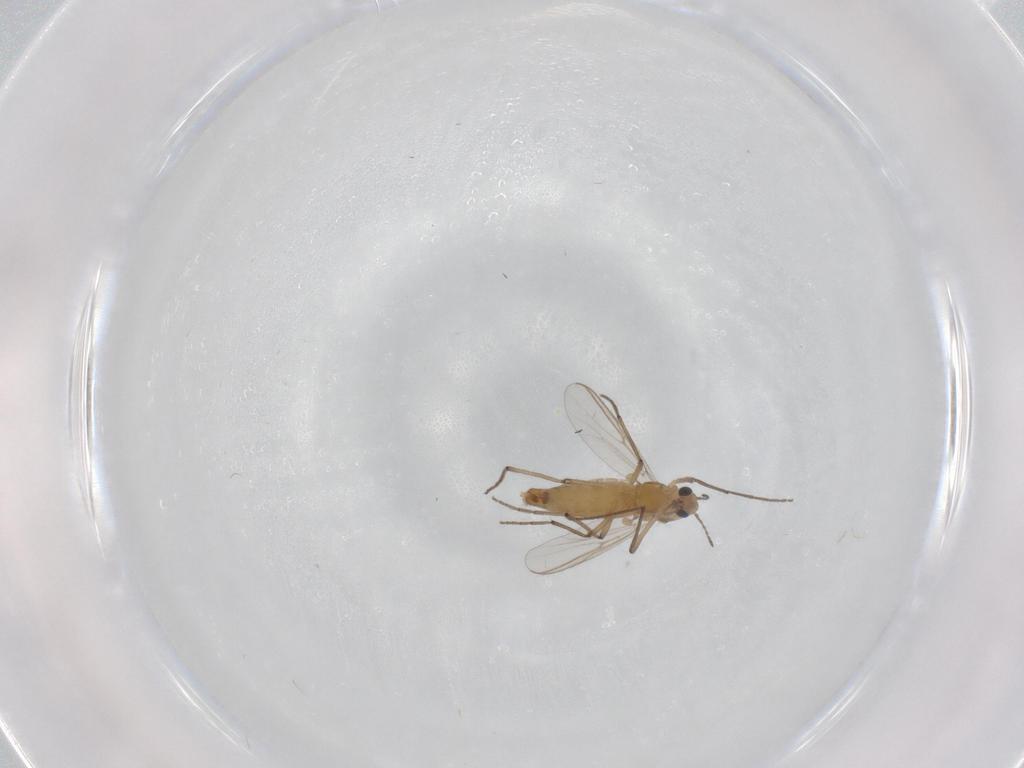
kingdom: Animalia
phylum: Arthropoda
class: Insecta
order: Diptera
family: Chironomidae
